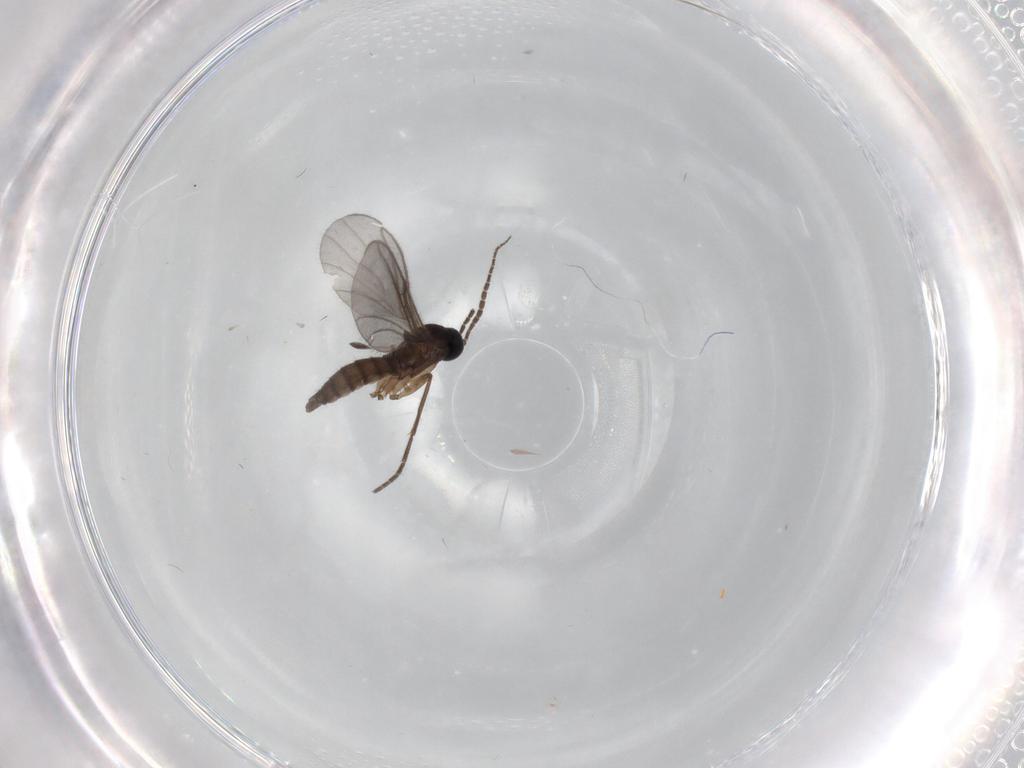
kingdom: Animalia
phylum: Arthropoda
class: Insecta
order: Diptera
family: Sciaridae
